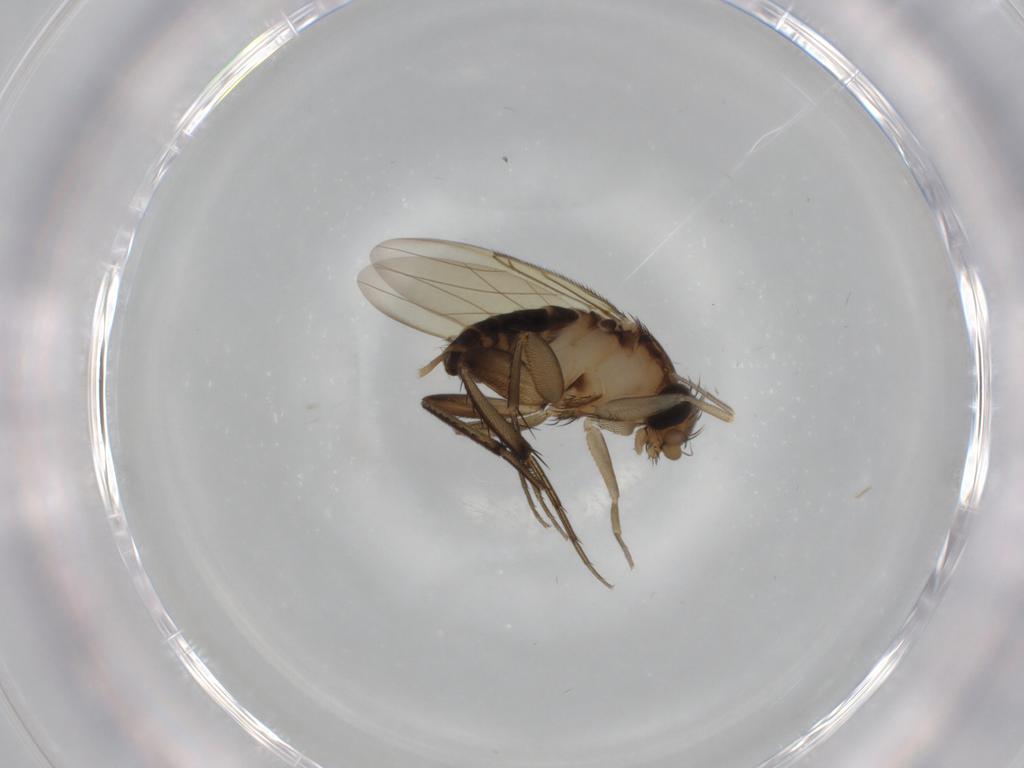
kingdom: Animalia
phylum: Arthropoda
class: Insecta
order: Diptera
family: Phoridae
